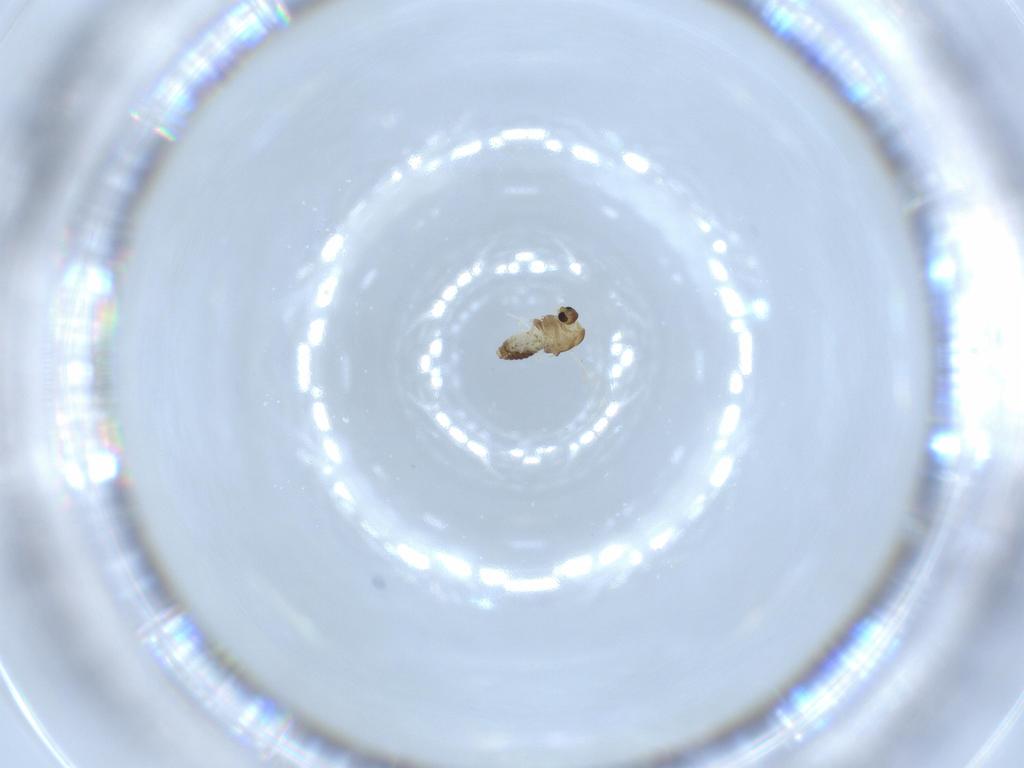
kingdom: Animalia
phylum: Arthropoda
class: Insecta
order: Diptera
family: Chironomidae
